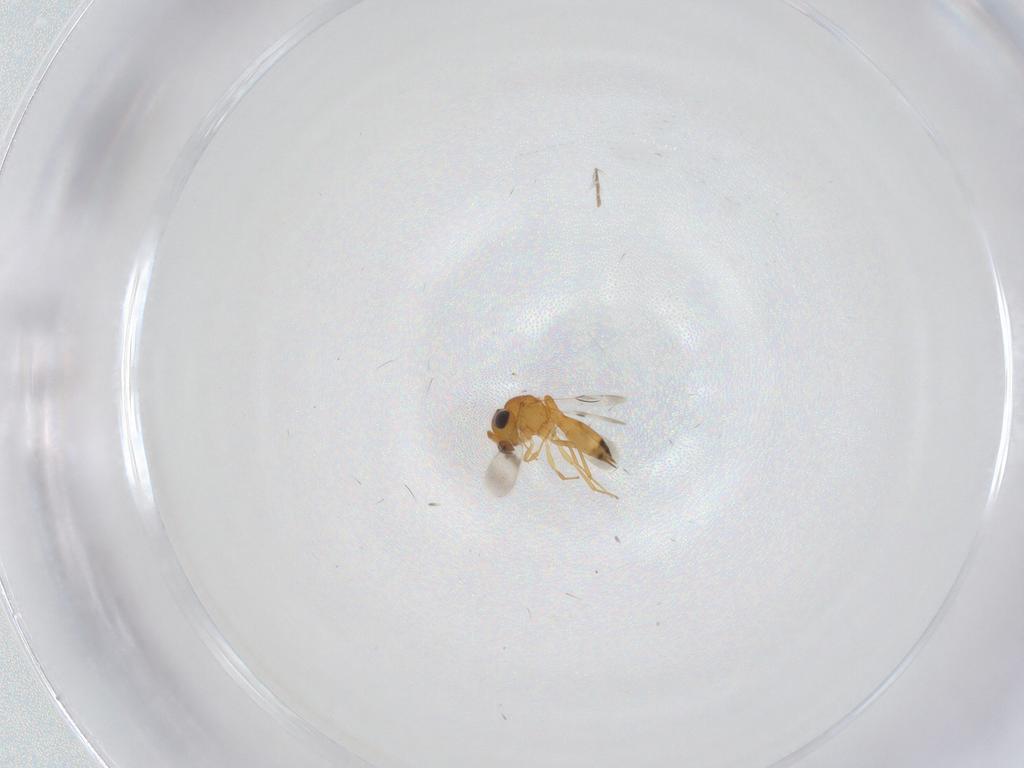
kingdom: Animalia
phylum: Arthropoda
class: Insecta
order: Hymenoptera
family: Scelionidae
